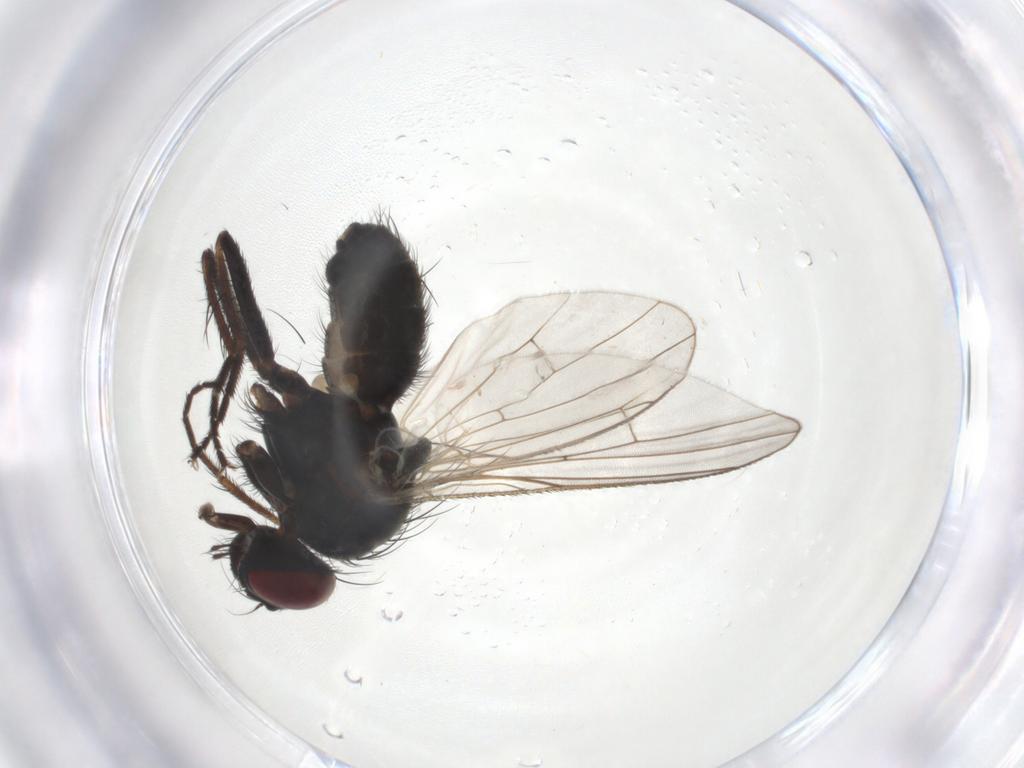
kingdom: Animalia
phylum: Arthropoda
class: Insecta
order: Diptera
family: Muscidae
